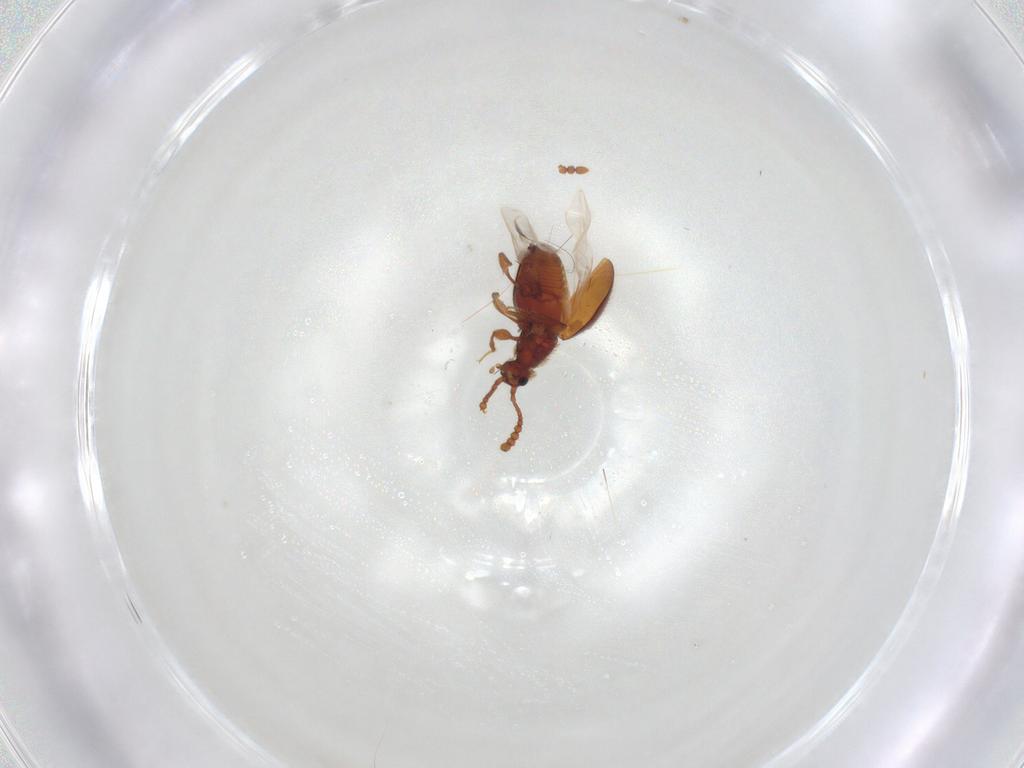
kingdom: Animalia
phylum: Arthropoda
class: Insecta
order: Coleoptera
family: Staphylinidae
